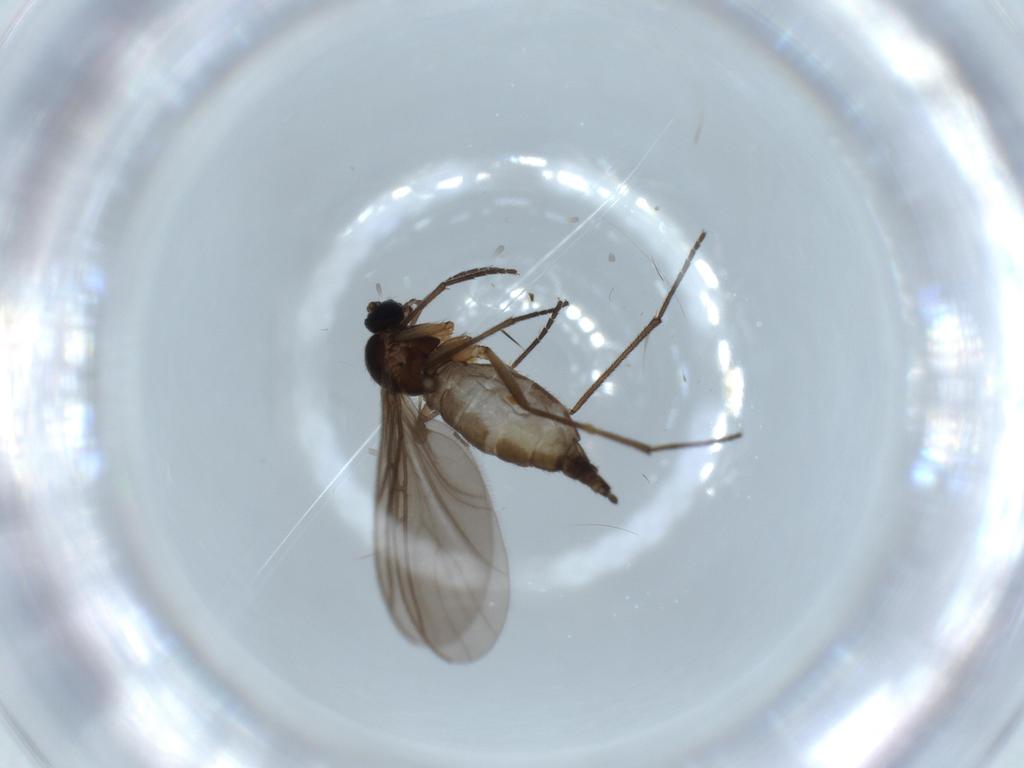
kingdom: Animalia
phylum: Arthropoda
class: Insecta
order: Diptera
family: Sciaridae
